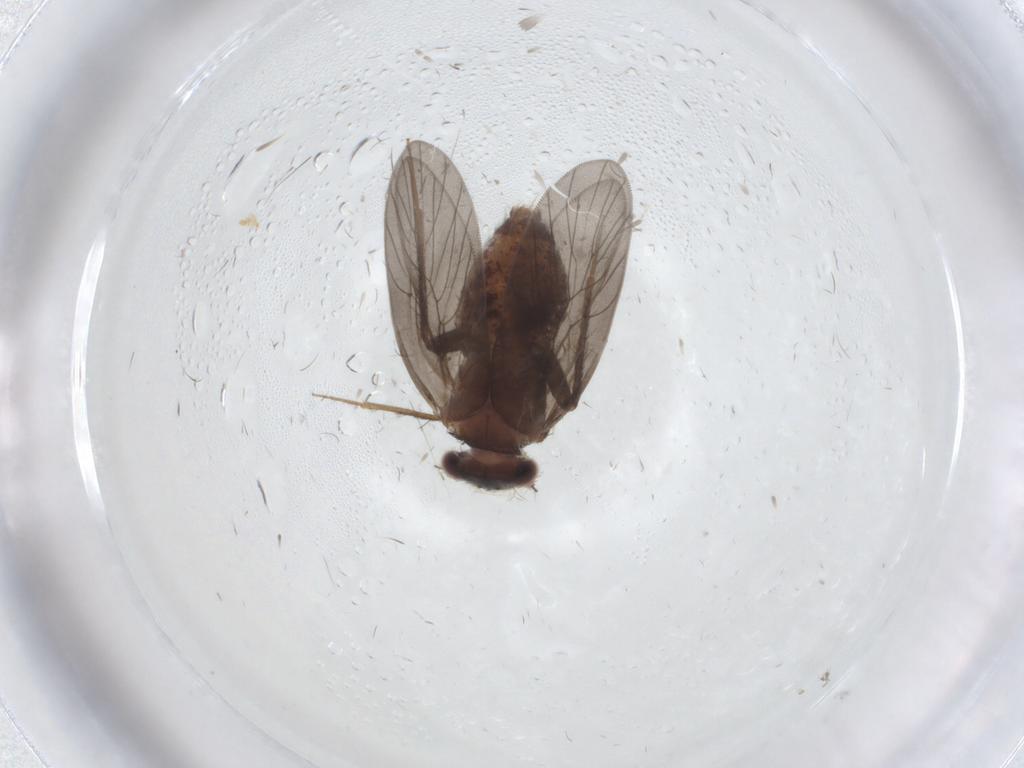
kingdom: Animalia
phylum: Arthropoda
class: Insecta
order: Psocodea
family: Lepidopsocidae
